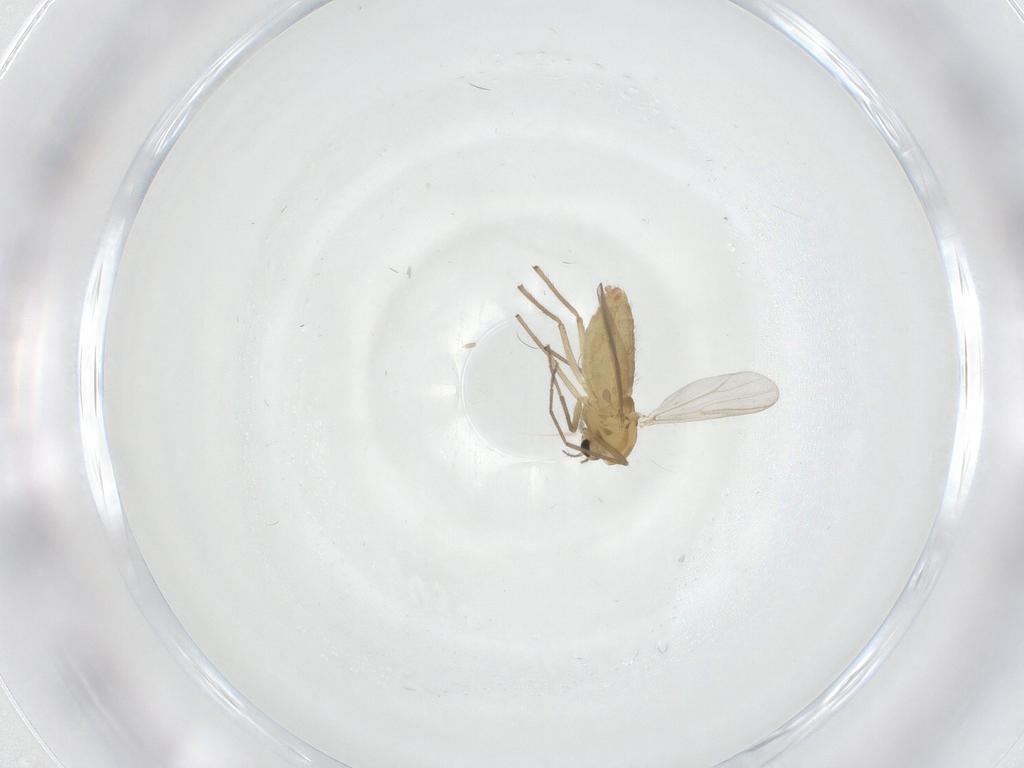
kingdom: Animalia
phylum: Arthropoda
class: Insecta
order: Diptera
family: Chironomidae
